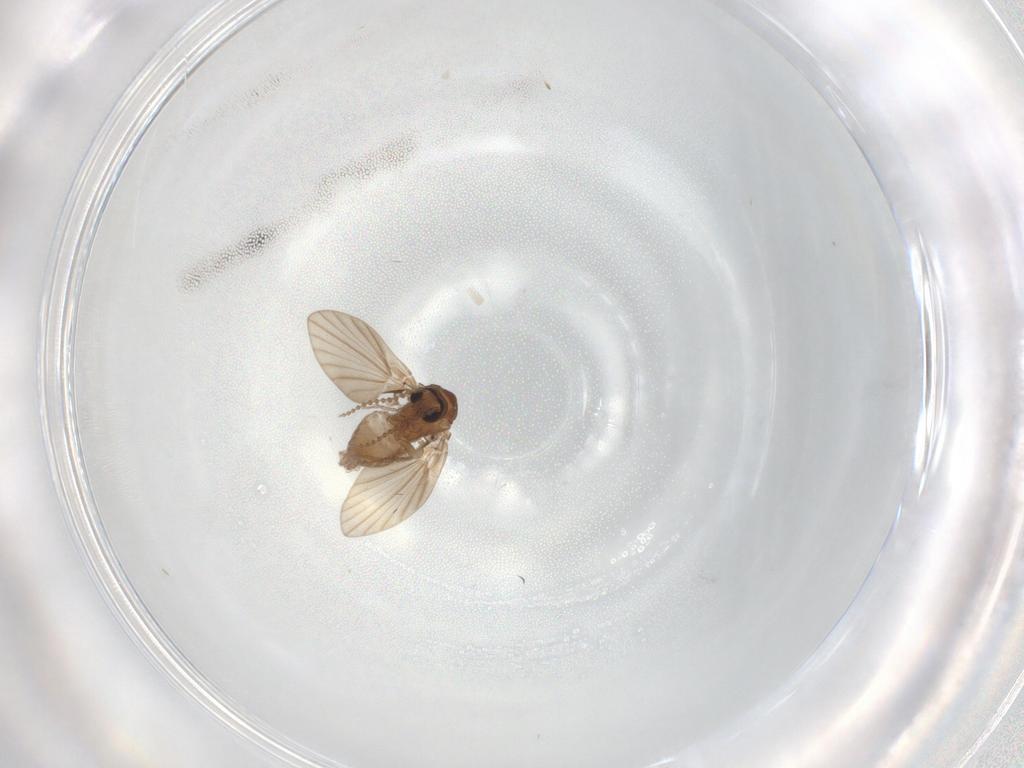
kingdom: Animalia
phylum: Arthropoda
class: Insecta
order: Diptera
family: Psychodidae
